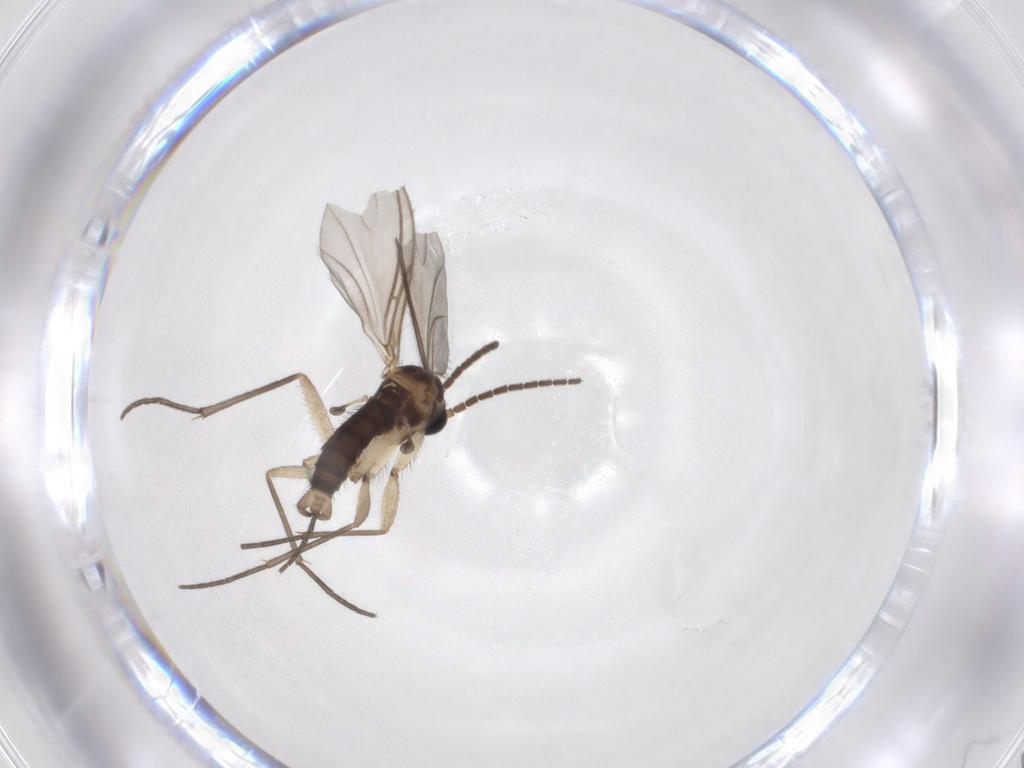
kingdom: Animalia
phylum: Arthropoda
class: Insecta
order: Diptera
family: Sciaridae
